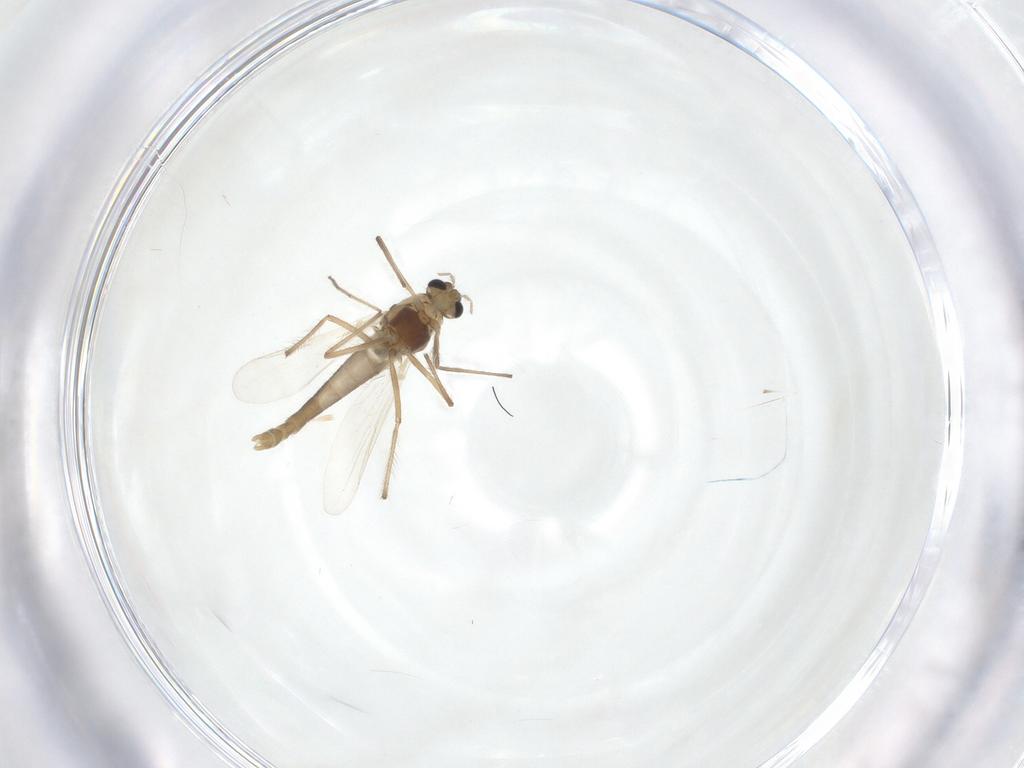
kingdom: Animalia
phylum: Arthropoda
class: Insecta
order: Diptera
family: Chironomidae
